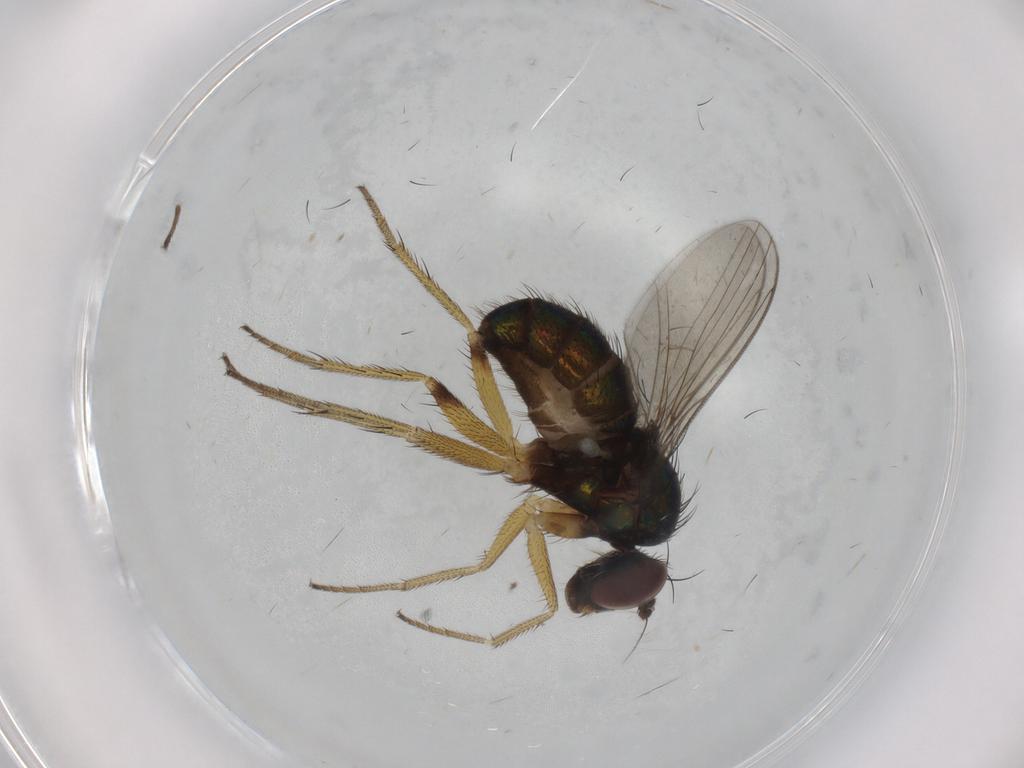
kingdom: Animalia
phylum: Arthropoda
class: Insecta
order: Diptera
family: Dolichopodidae
